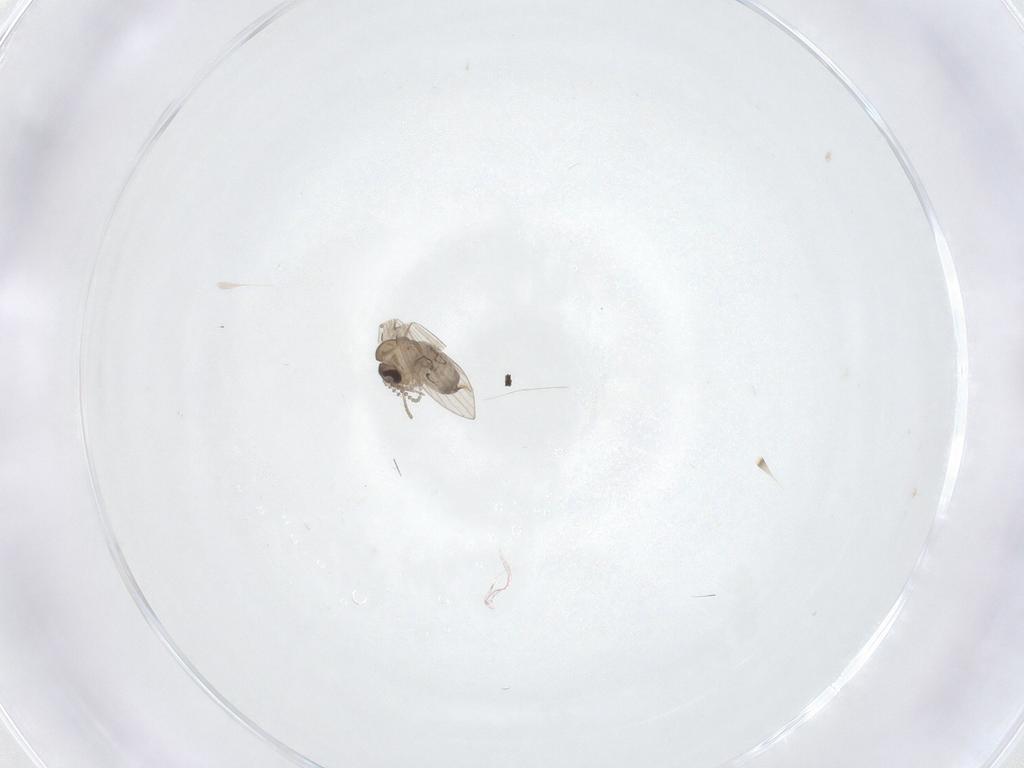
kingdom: Animalia
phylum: Arthropoda
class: Insecta
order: Diptera
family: Psychodidae
